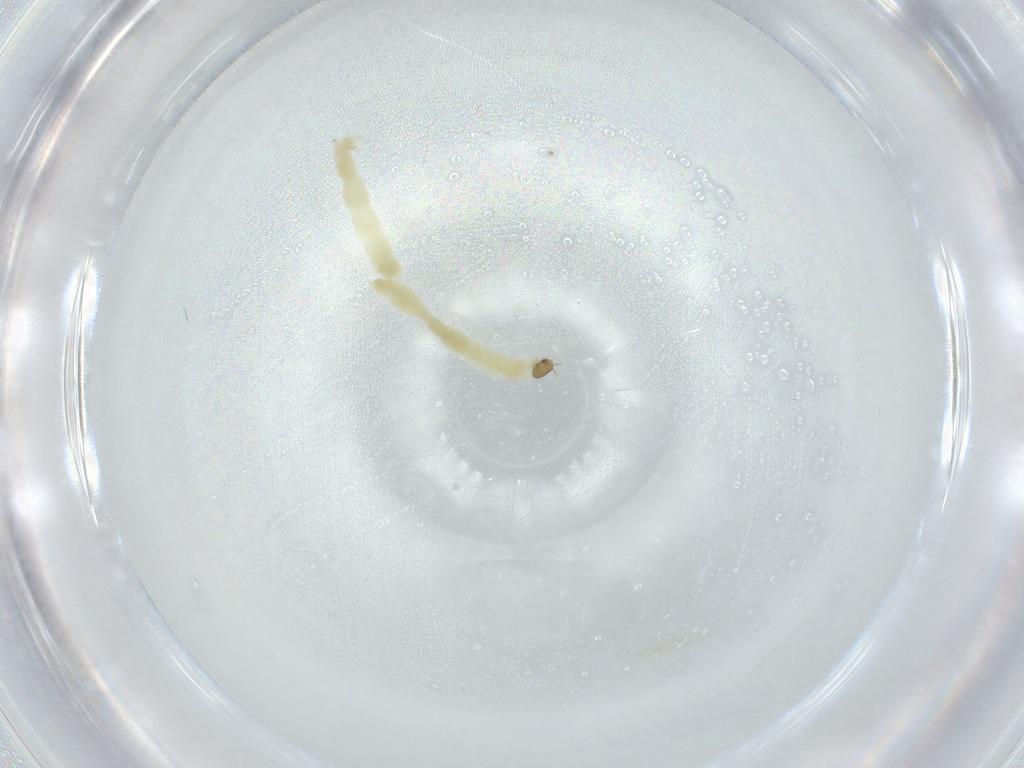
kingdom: Animalia
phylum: Arthropoda
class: Insecta
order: Diptera
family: Chironomidae
